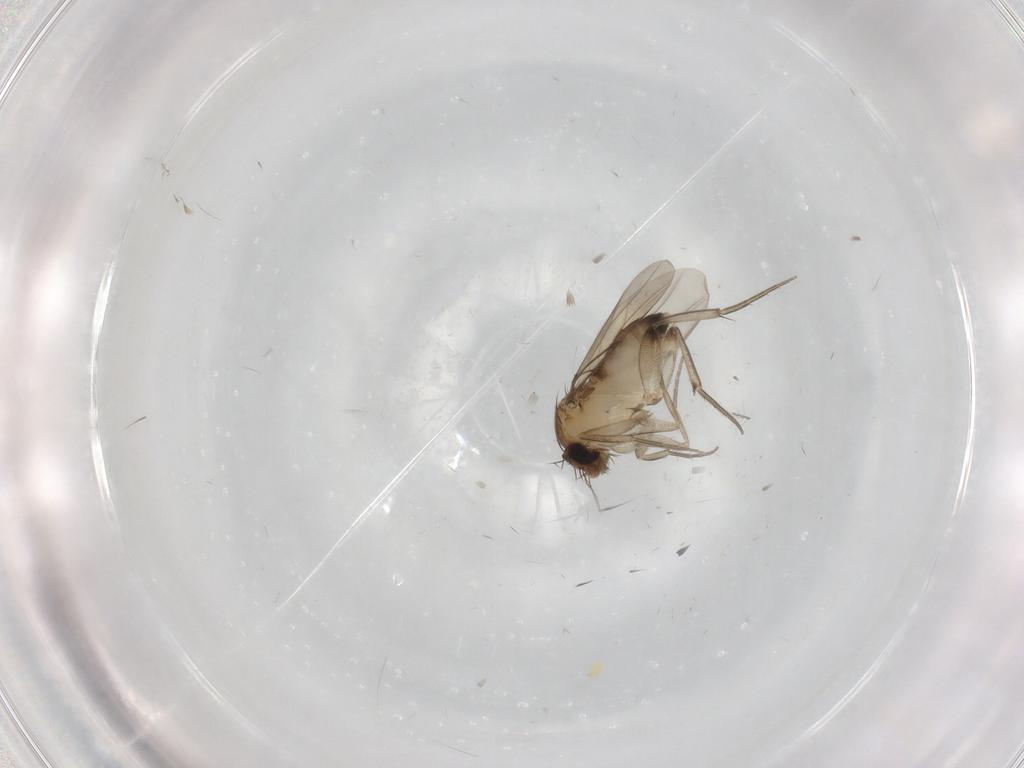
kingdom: Animalia
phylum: Arthropoda
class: Insecta
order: Diptera
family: Phoridae
